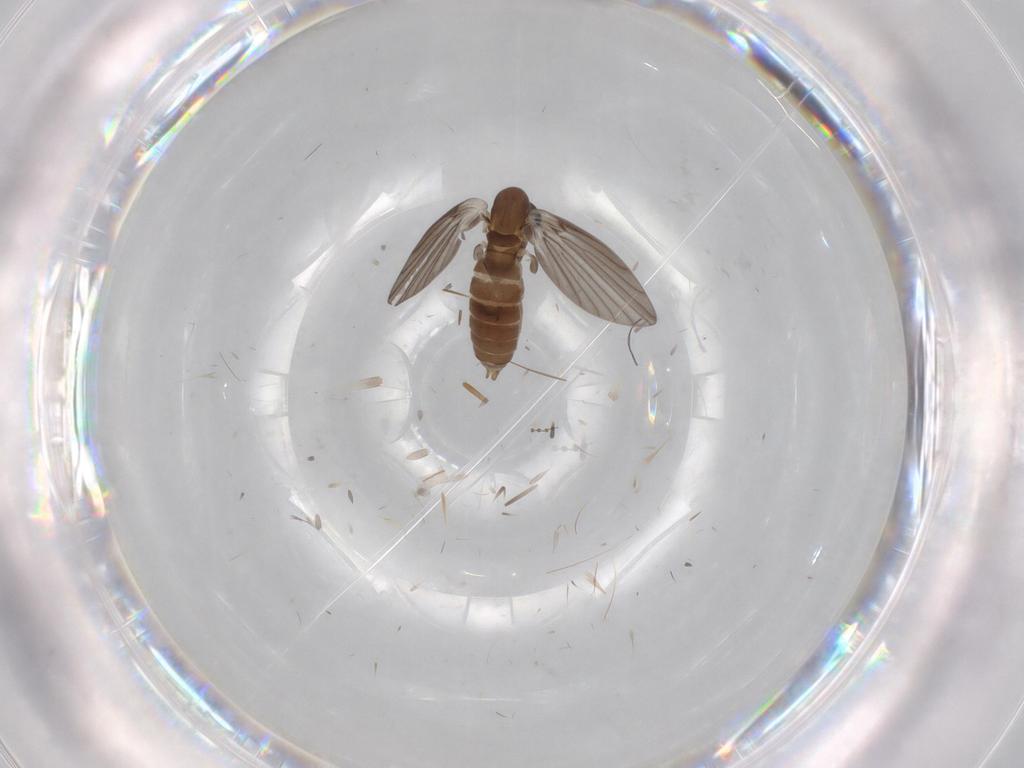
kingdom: Animalia
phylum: Arthropoda
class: Insecta
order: Diptera
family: Psychodidae
